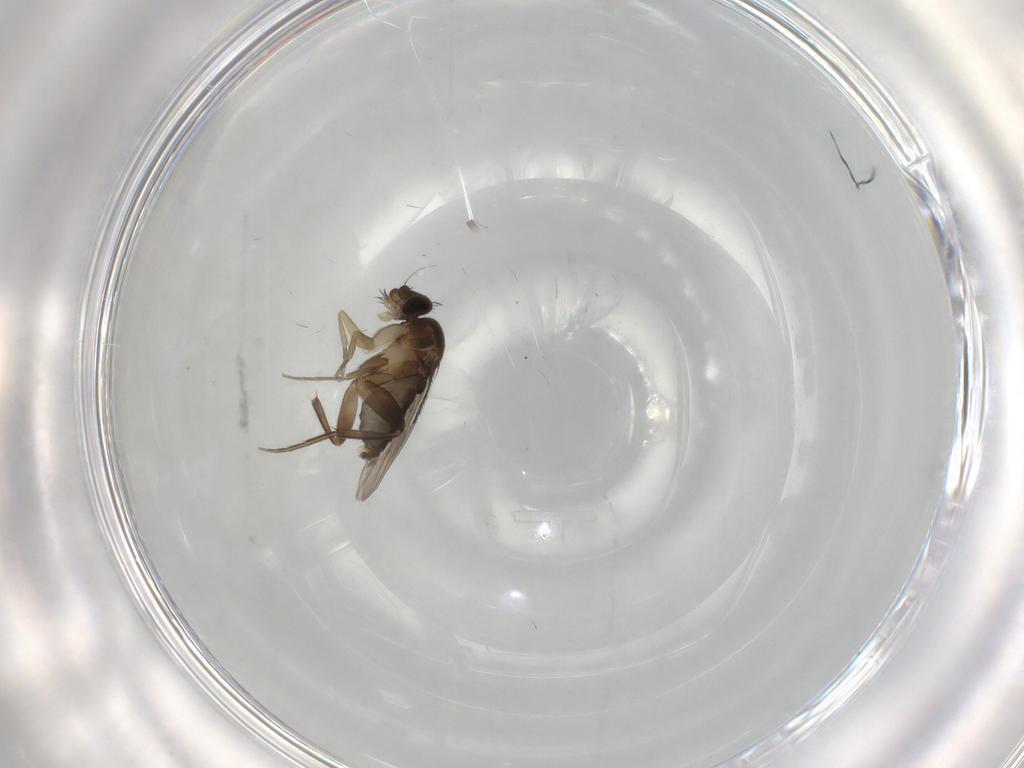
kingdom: Animalia
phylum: Arthropoda
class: Insecta
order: Diptera
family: Phoridae
